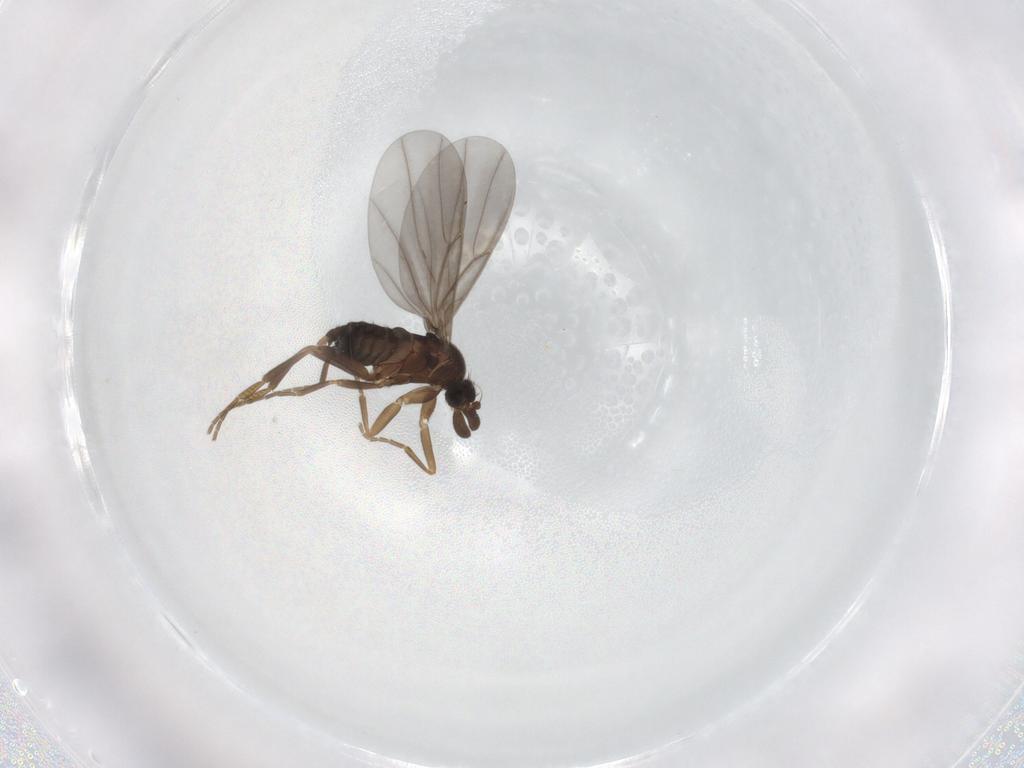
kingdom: Animalia
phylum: Arthropoda
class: Insecta
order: Diptera
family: Chironomidae
